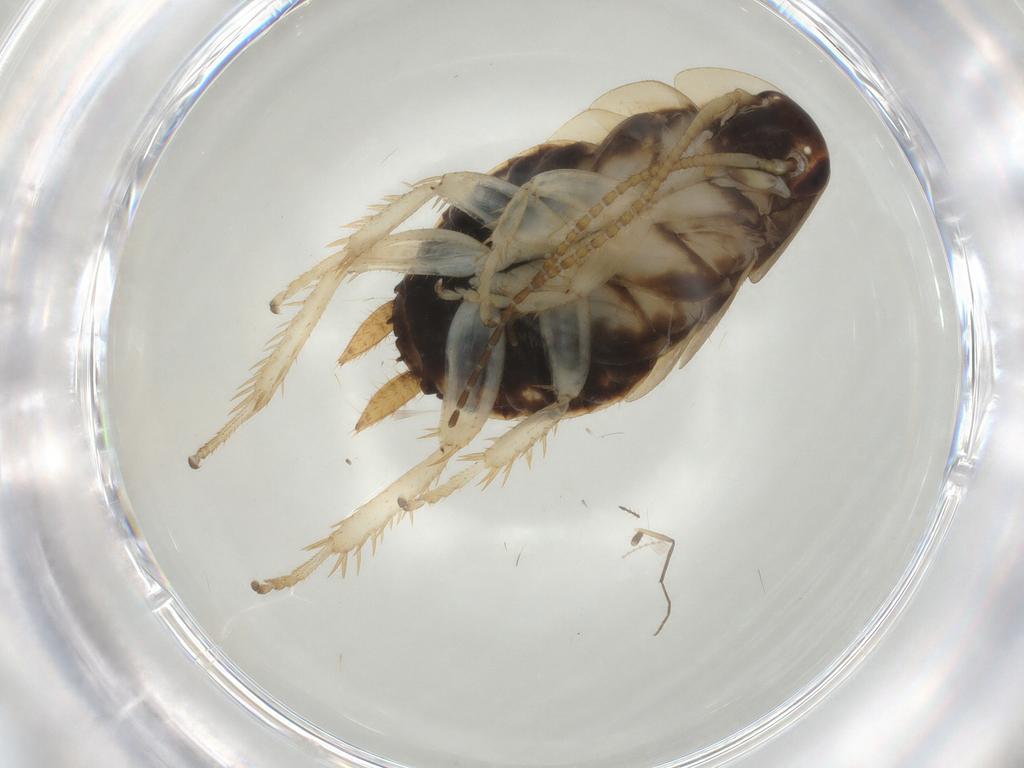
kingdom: Animalia
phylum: Arthropoda
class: Insecta
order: Blattodea
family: Ectobiidae
